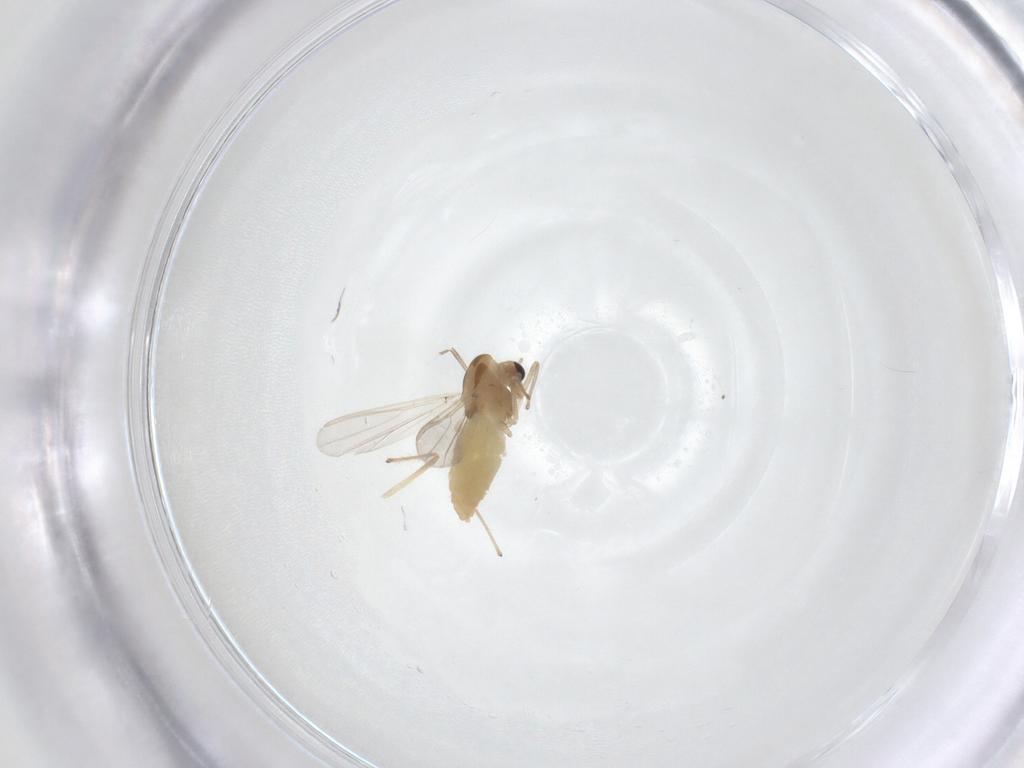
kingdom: Animalia
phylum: Arthropoda
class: Insecta
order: Diptera
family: Chironomidae
